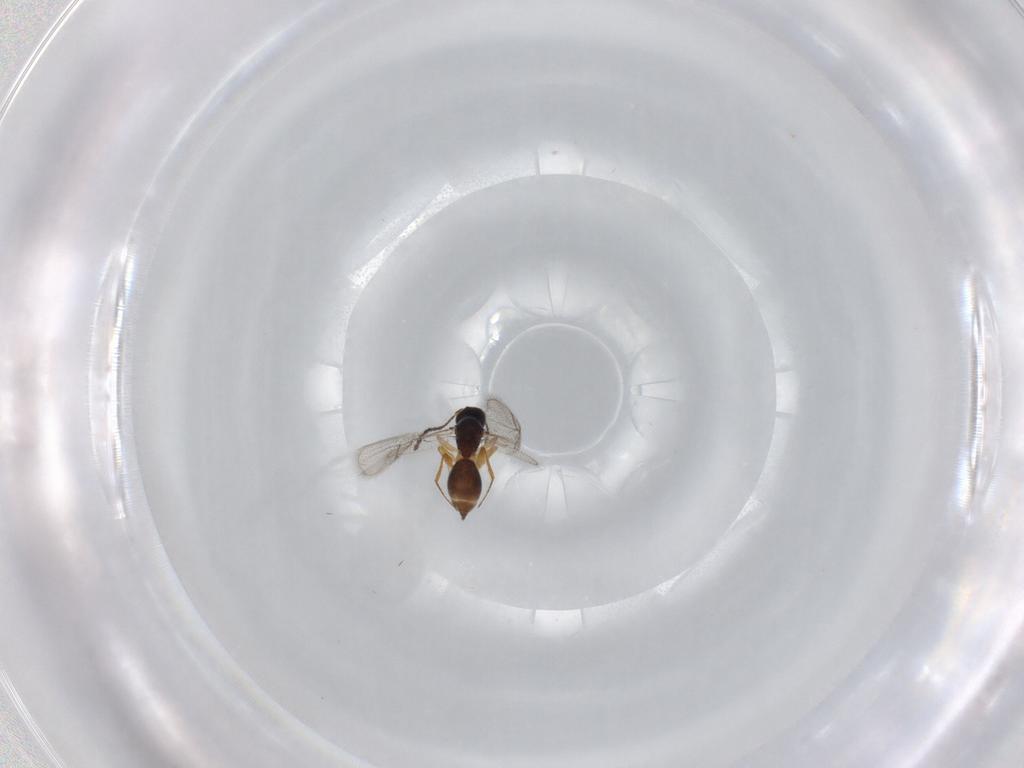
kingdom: Animalia
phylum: Arthropoda
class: Insecta
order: Hymenoptera
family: Figitidae
